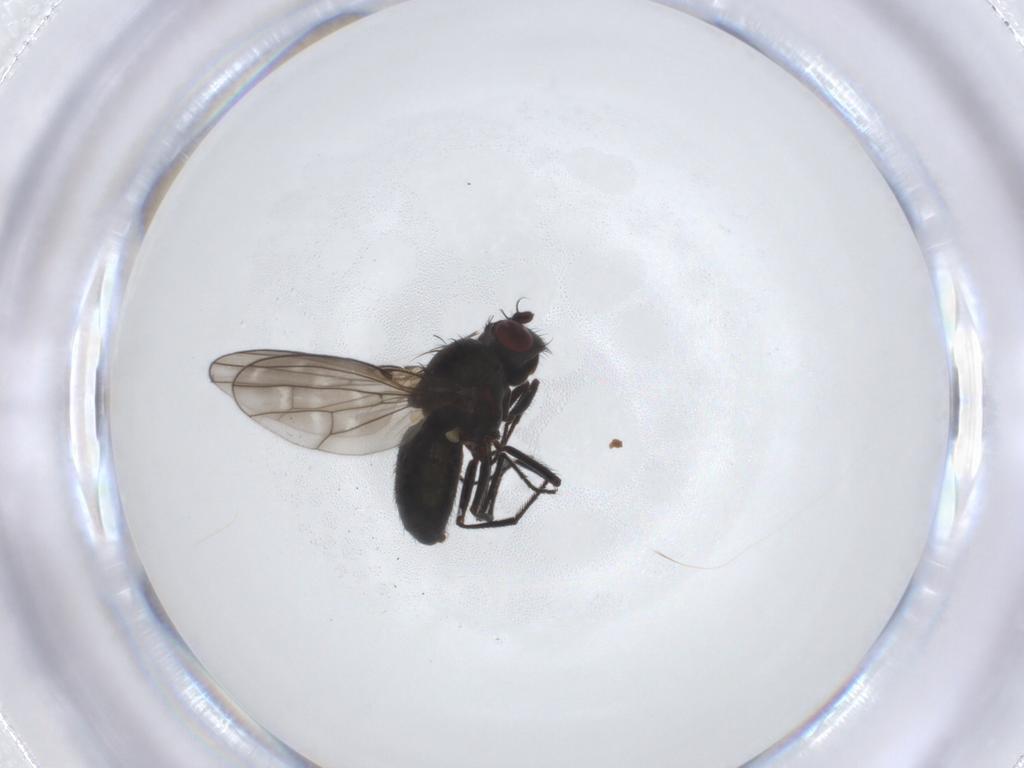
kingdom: Animalia
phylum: Arthropoda
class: Insecta
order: Diptera
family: Ephydridae
